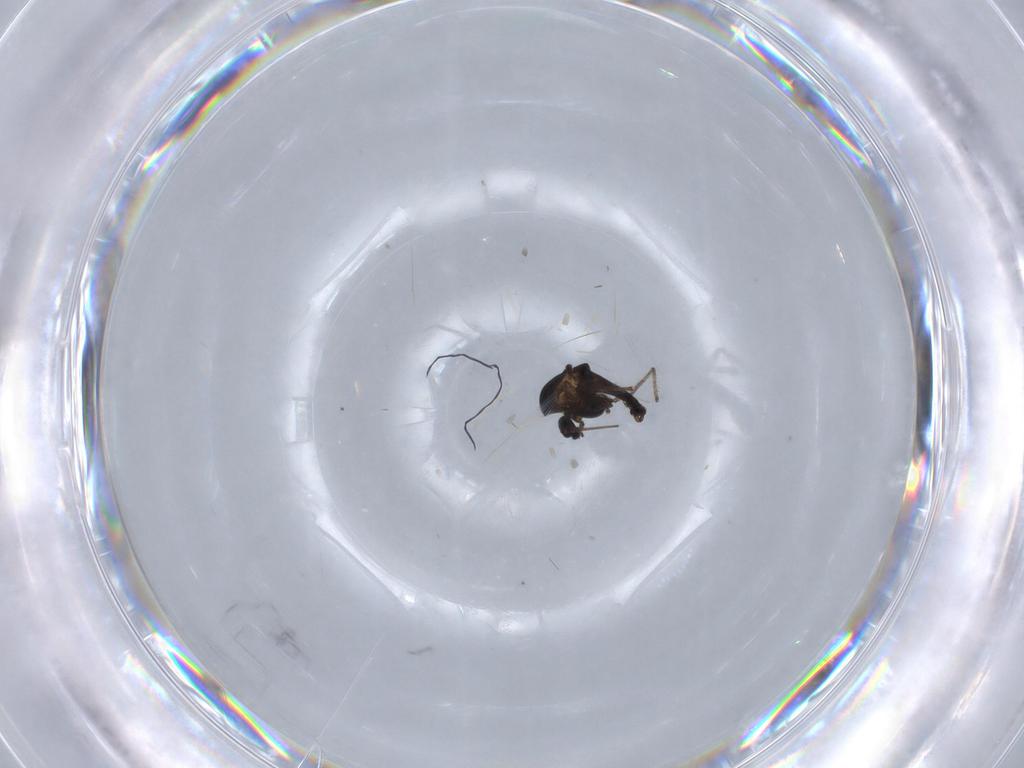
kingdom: Animalia
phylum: Arthropoda
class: Insecta
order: Diptera
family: Chironomidae
